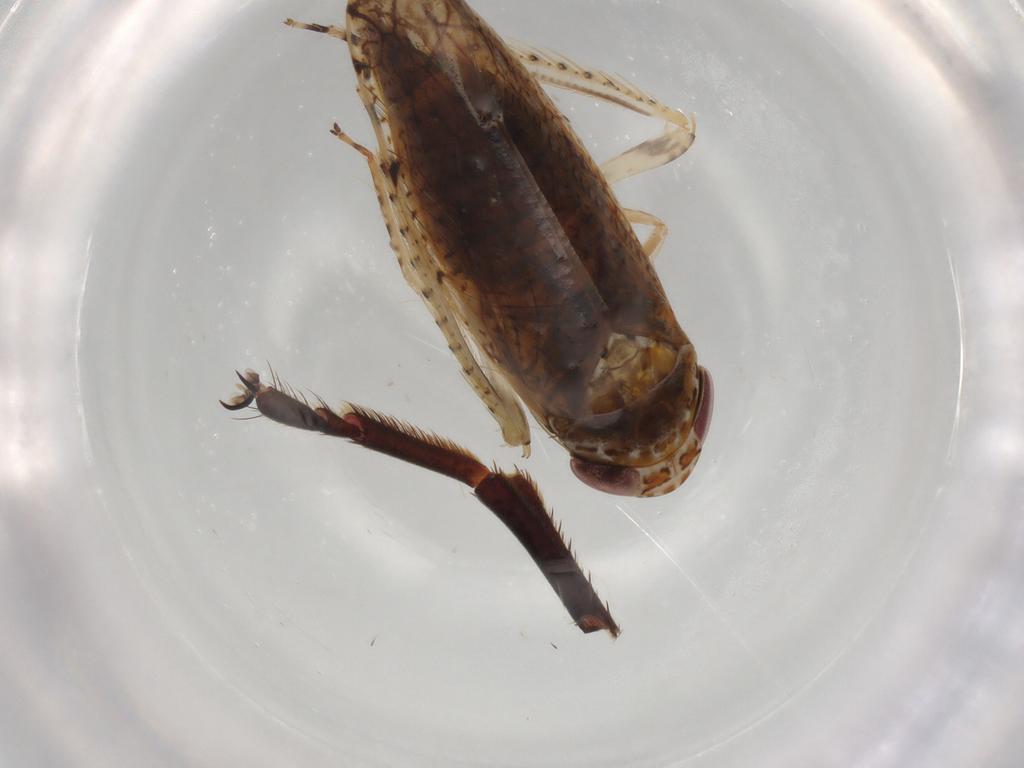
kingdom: Animalia
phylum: Arthropoda
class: Insecta
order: Hemiptera
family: Pyrrhocoridae
